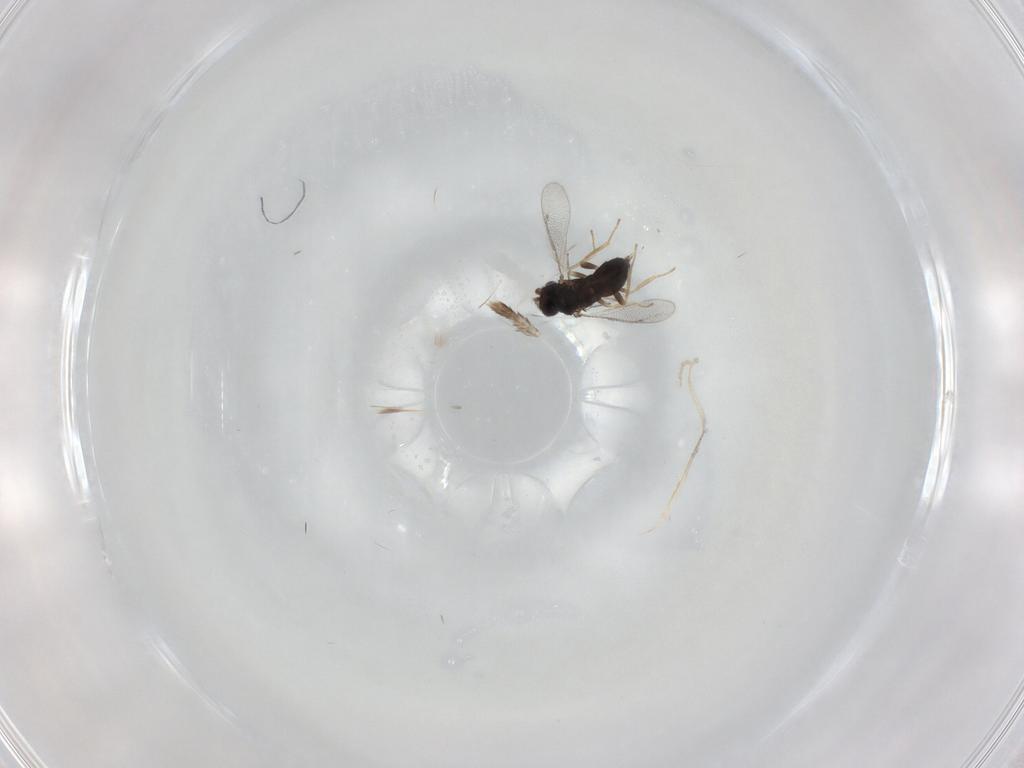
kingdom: Animalia
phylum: Arthropoda
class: Insecta
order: Hymenoptera
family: Eulophidae
